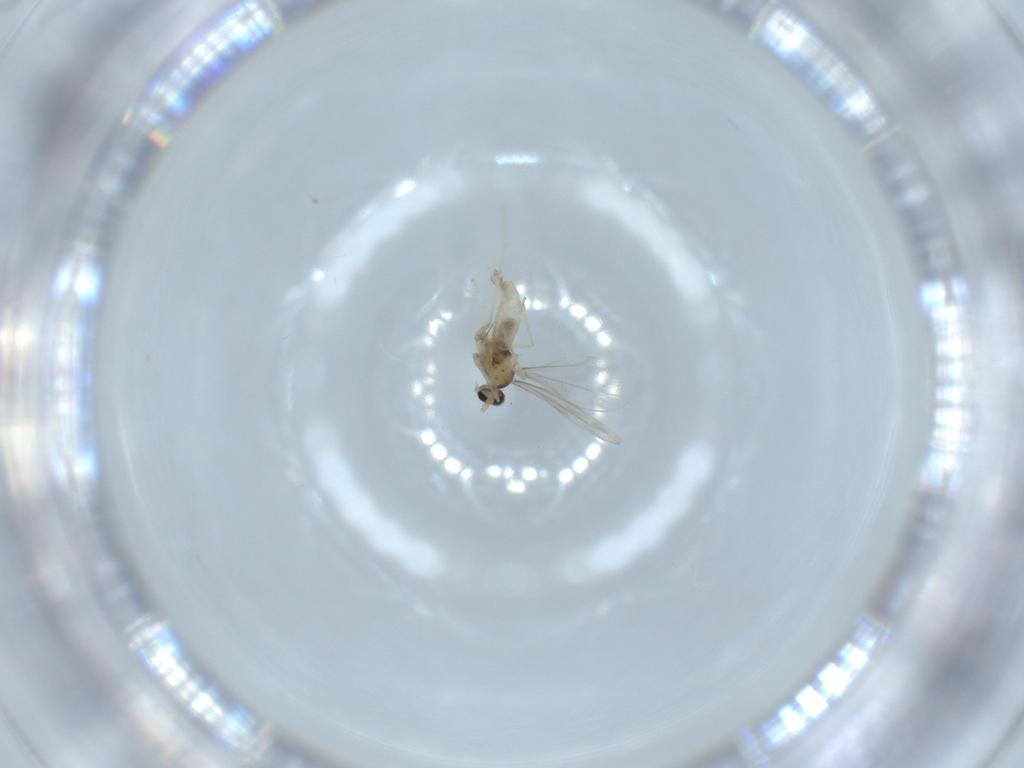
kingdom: Animalia
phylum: Arthropoda
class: Insecta
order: Diptera
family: Cecidomyiidae
